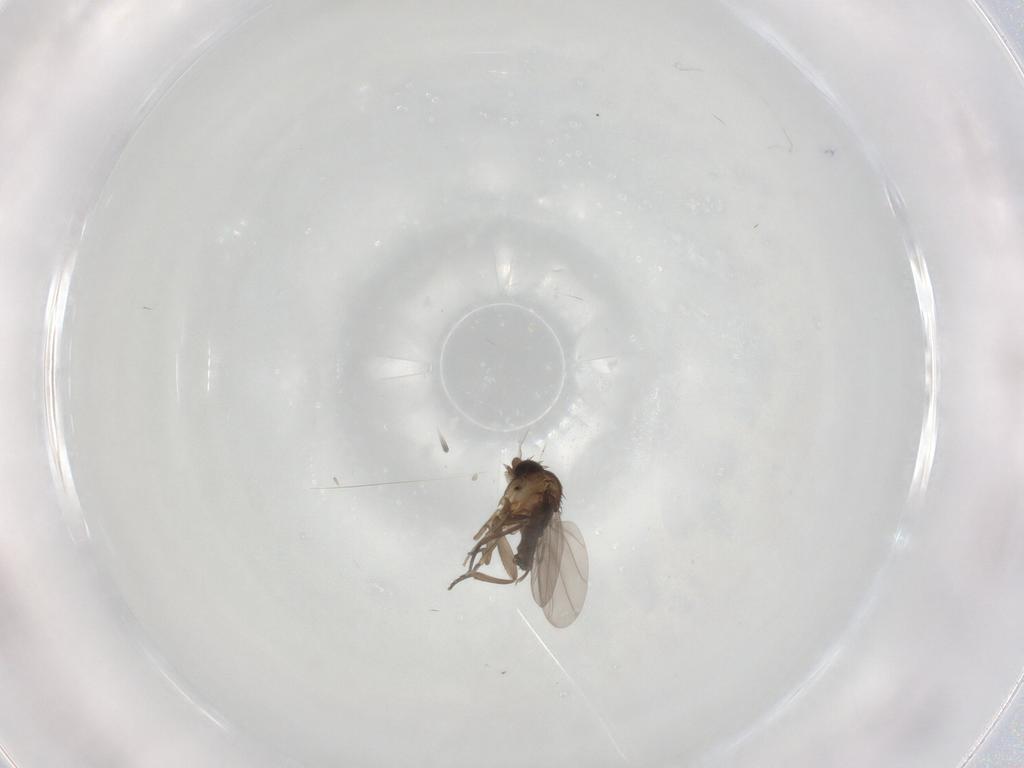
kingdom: Animalia
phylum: Arthropoda
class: Insecta
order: Diptera
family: Phoridae
